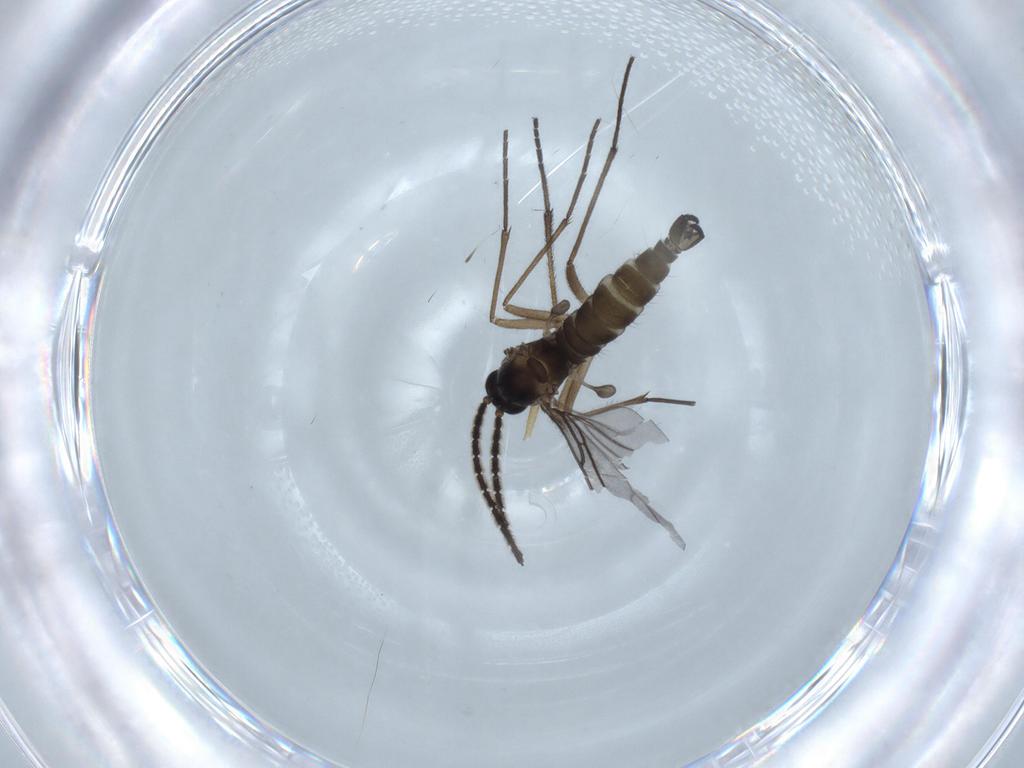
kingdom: Animalia
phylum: Arthropoda
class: Insecta
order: Diptera
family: Sciaridae
